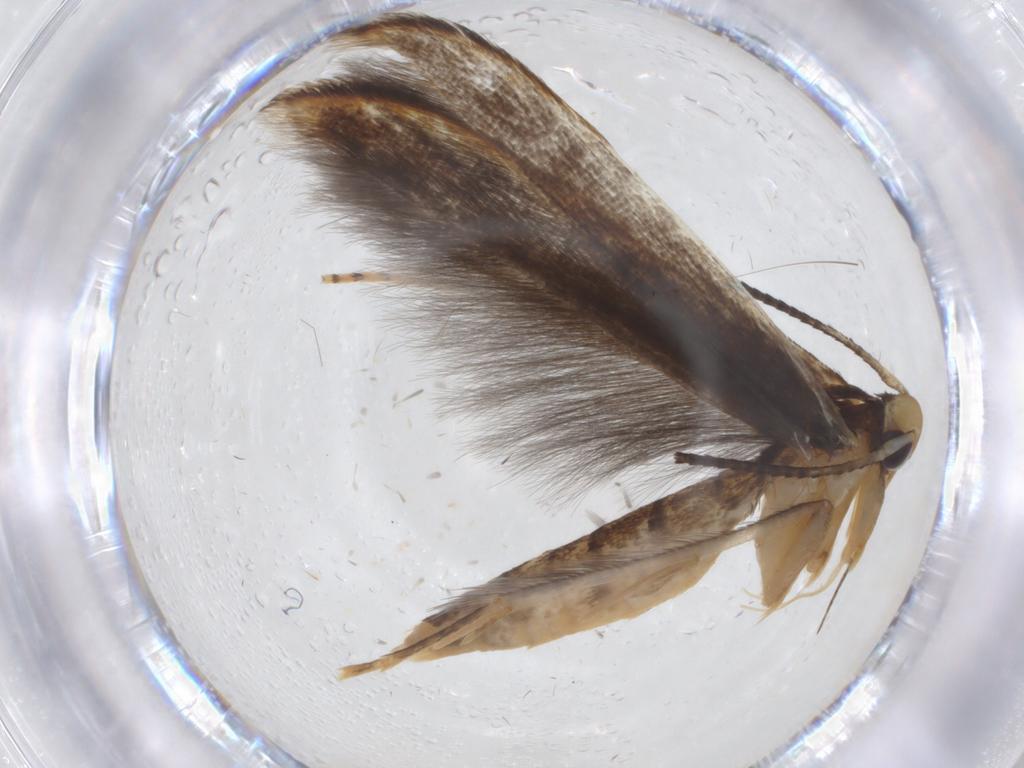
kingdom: Animalia
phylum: Arthropoda
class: Insecta
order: Lepidoptera
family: Pterolonchidae
